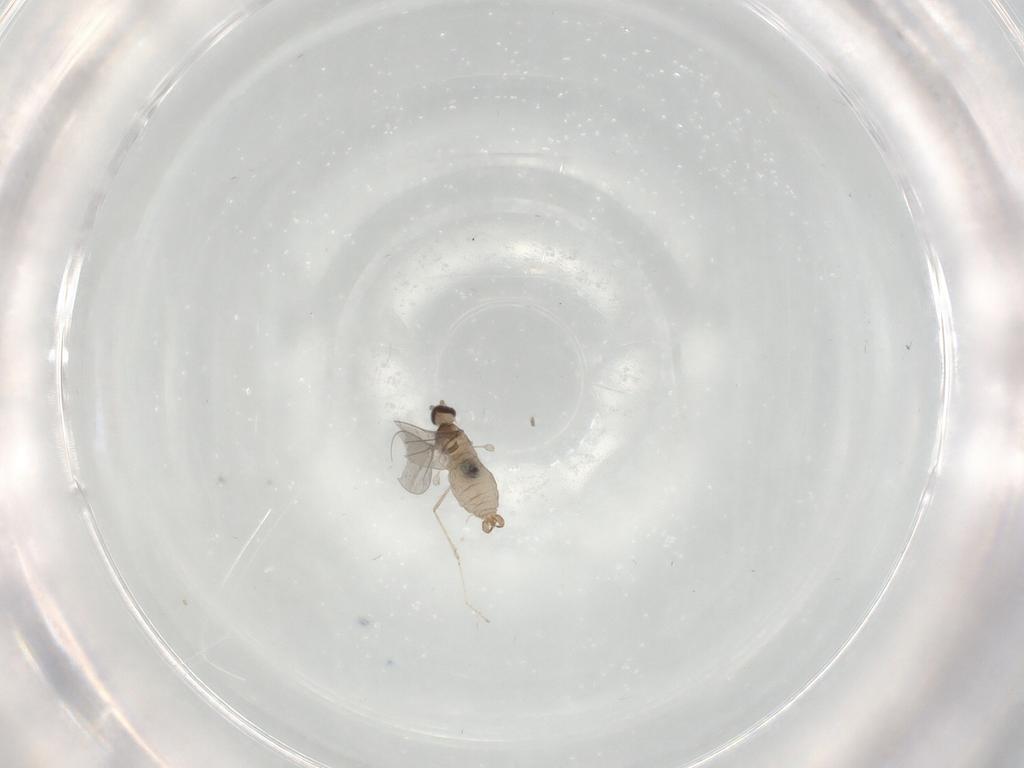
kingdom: Animalia
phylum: Arthropoda
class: Insecta
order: Diptera
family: Cecidomyiidae
